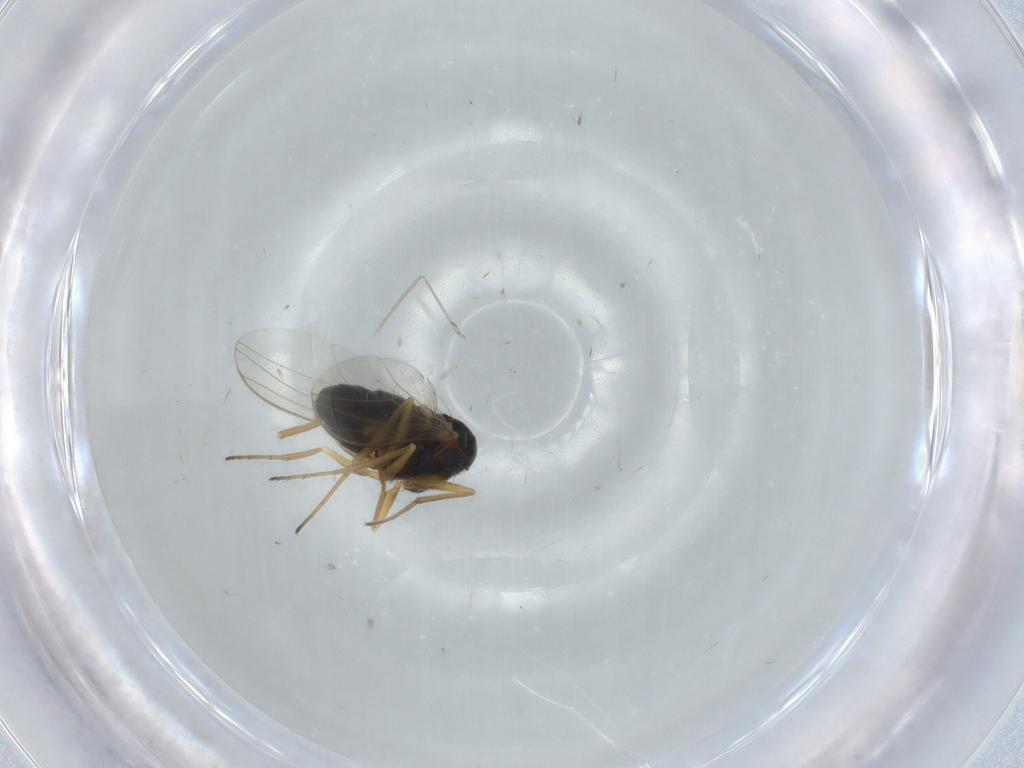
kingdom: Animalia
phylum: Arthropoda
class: Insecta
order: Diptera
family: Dolichopodidae
